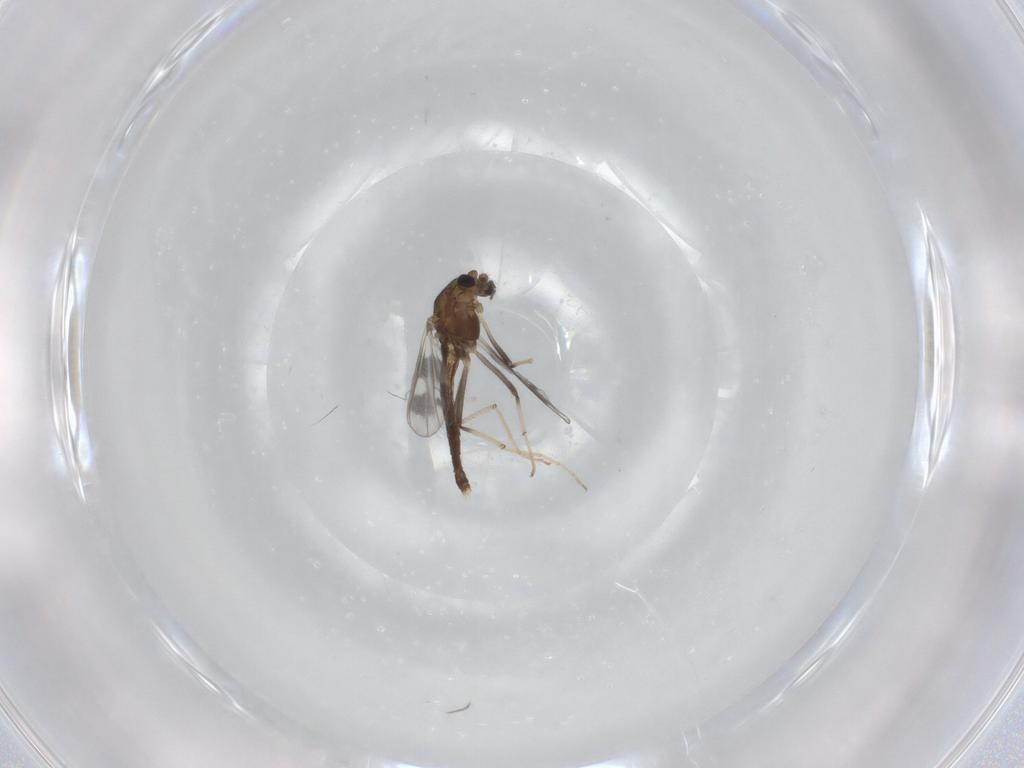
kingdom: Animalia
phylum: Arthropoda
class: Insecta
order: Diptera
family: Chironomidae
